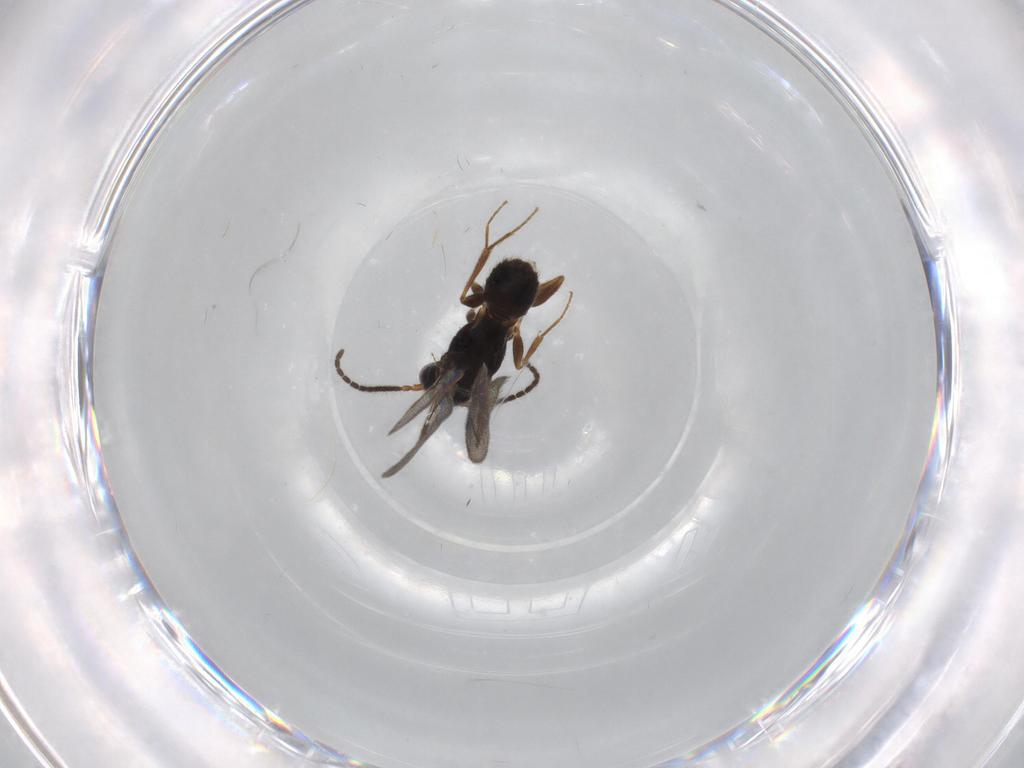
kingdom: Animalia
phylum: Arthropoda
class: Insecta
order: Hymenoptera
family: Bethylidae
